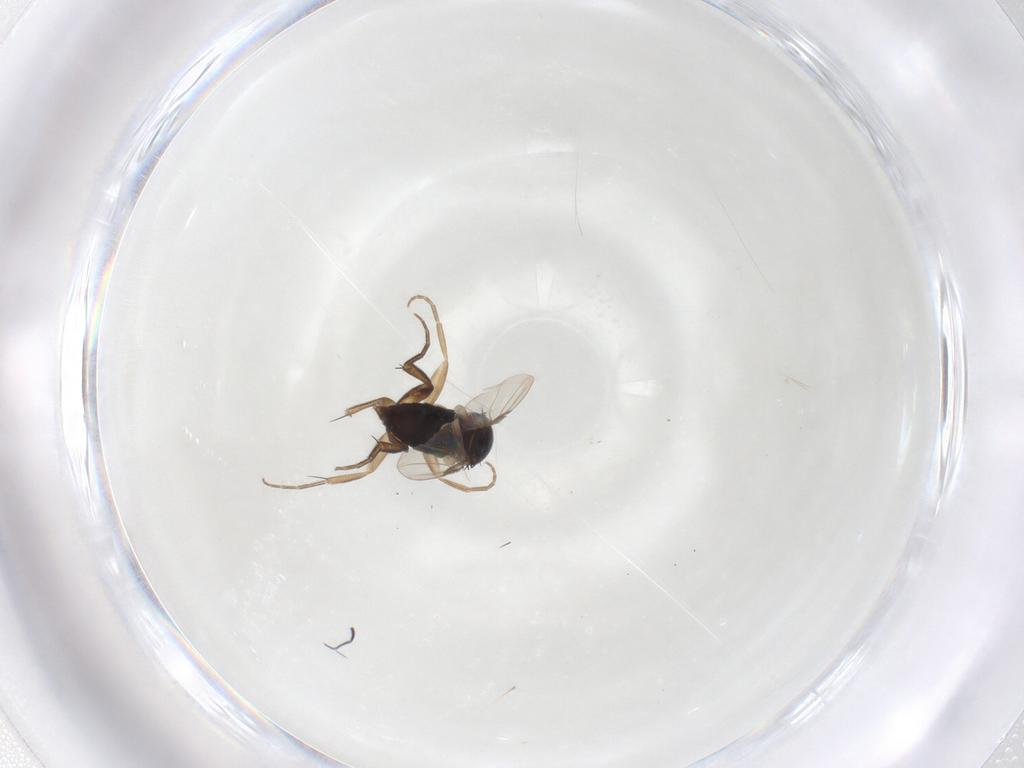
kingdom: Animalia
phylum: Arthropoda
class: Insecta
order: Diptera
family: Phoridae
